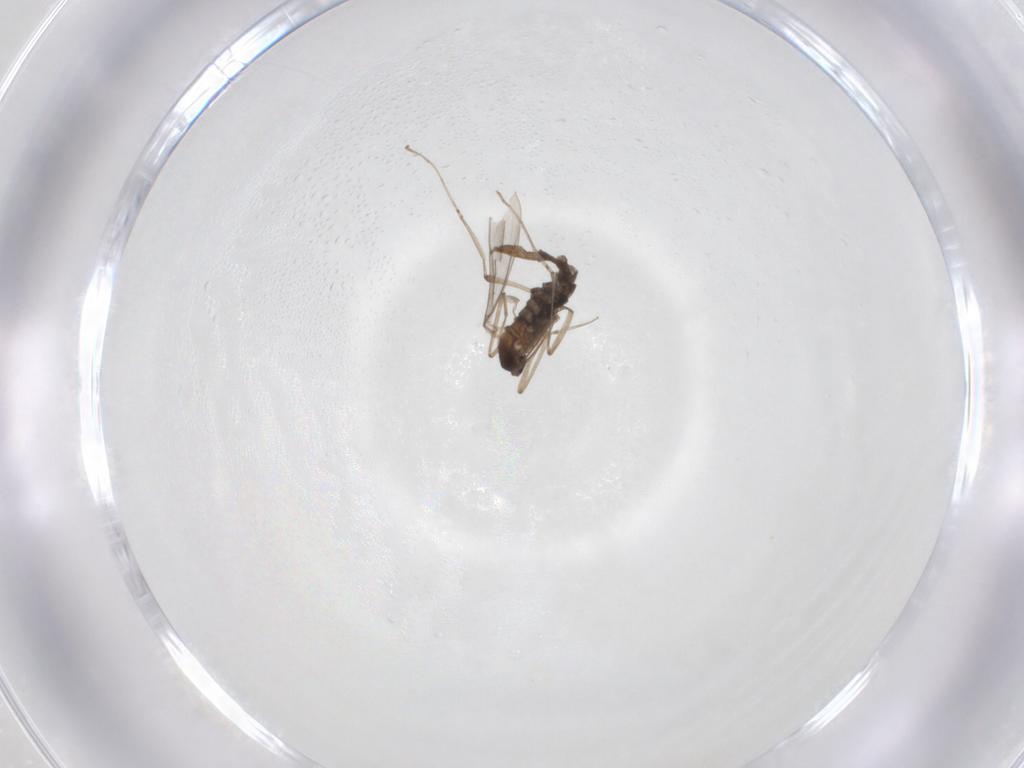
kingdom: Animalia
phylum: Arthropoda
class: Insecta
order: Diptera
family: Cecidomyiidae
